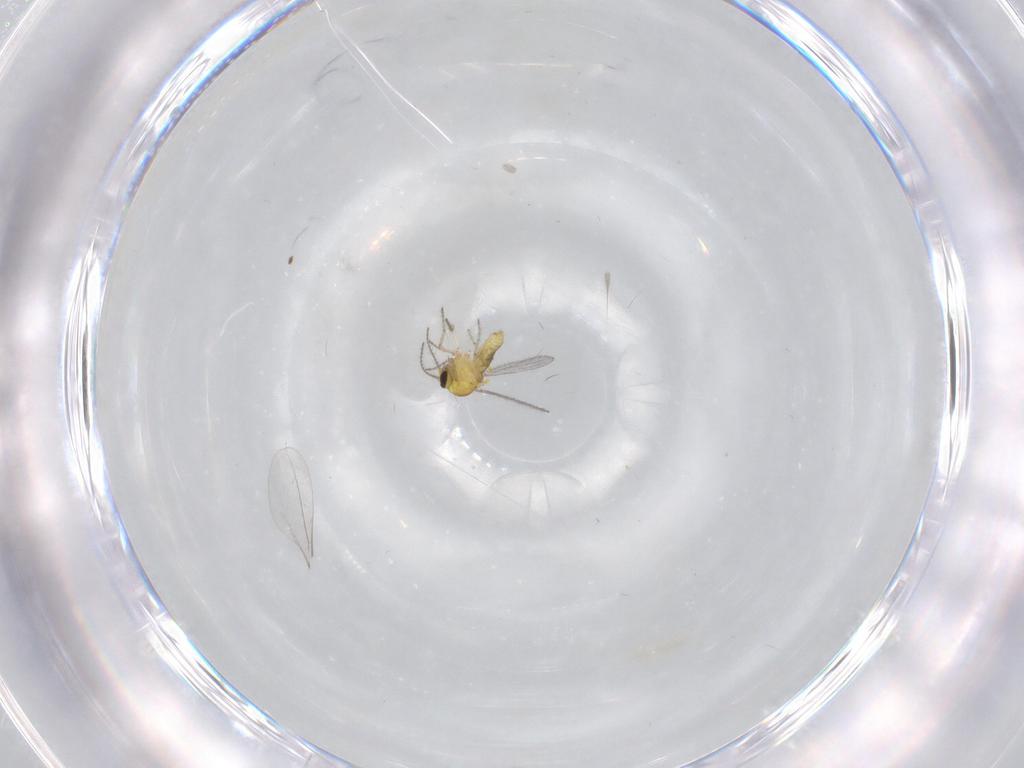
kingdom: Animalia
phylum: Arthropoda
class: Insecta
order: Diptera
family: Ceratopogonidae
